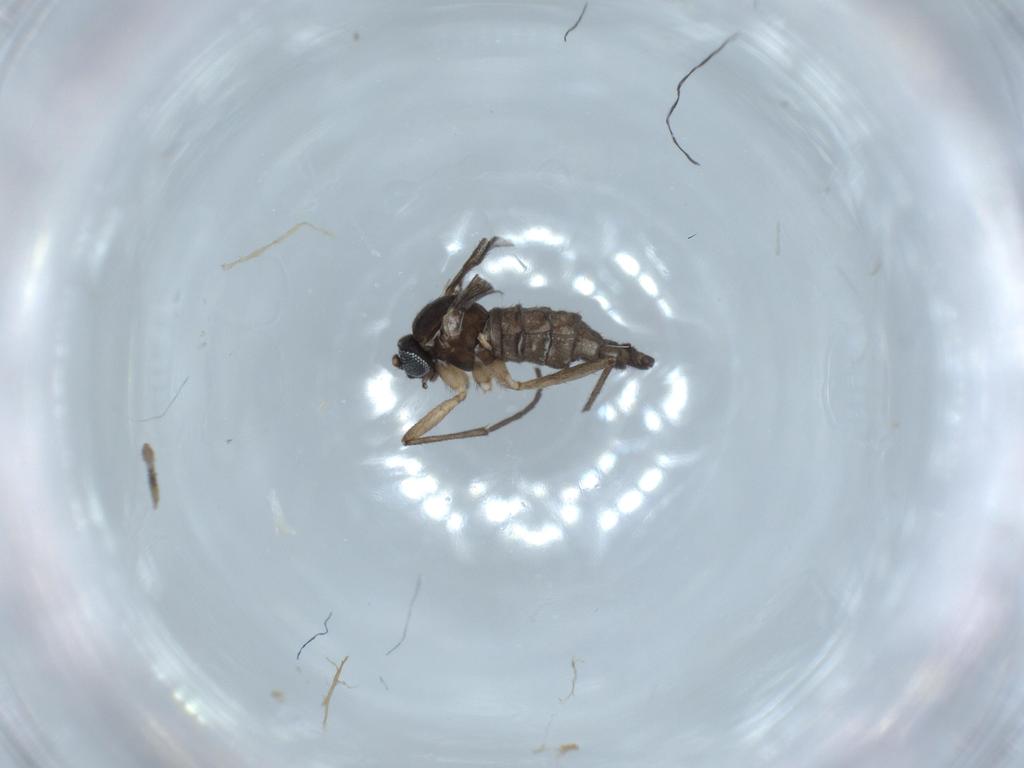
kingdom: Animalia
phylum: Arthropoda
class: Insecta
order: Diptera
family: Sciaridae
